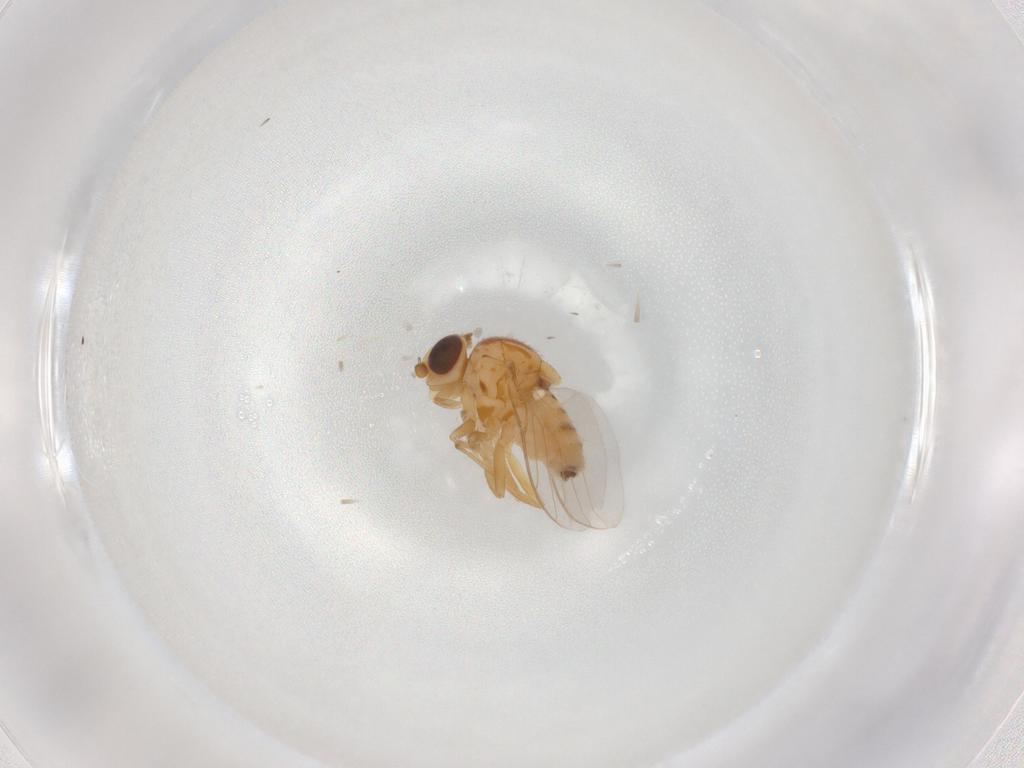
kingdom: Animalia
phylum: Arthropoda
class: Insecta
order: Diptera
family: Chloropidae
